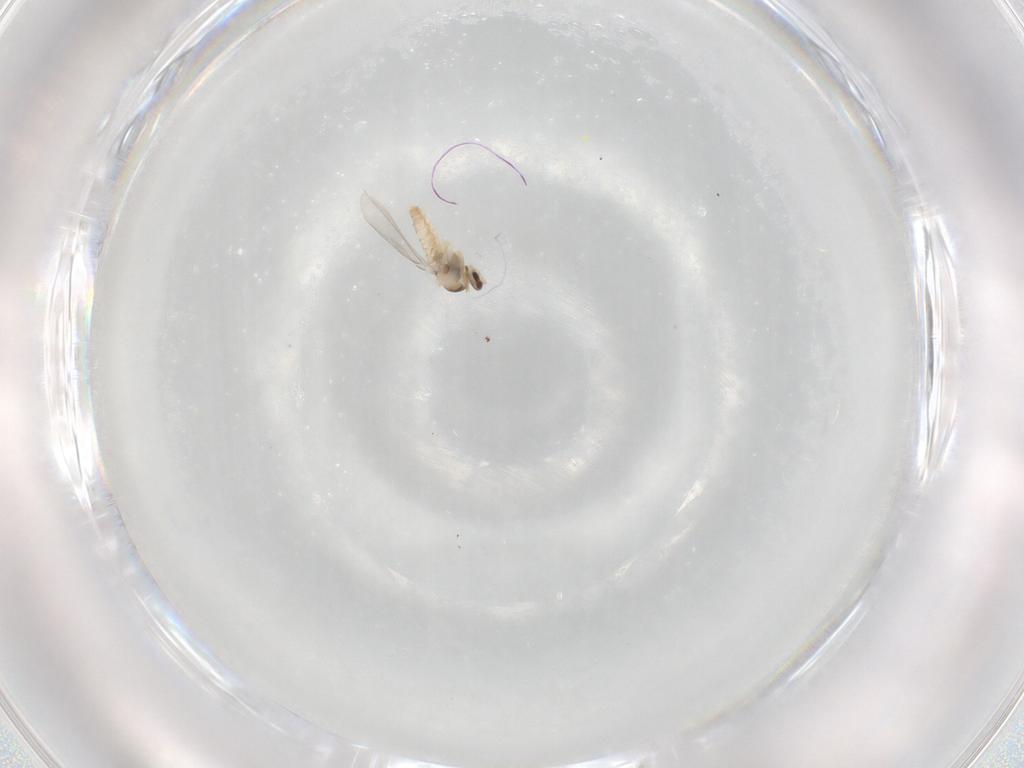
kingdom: Animalia
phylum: Arthropoda
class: Insecta
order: Diptera
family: Cecidomyiidae
